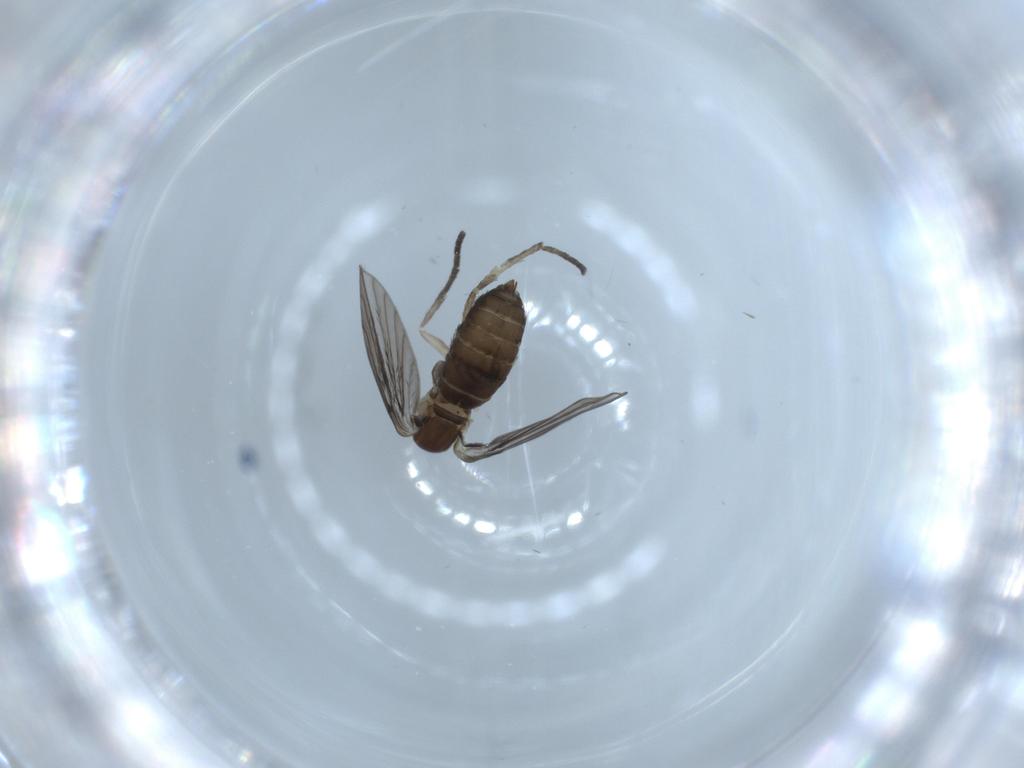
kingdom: Animalia
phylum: Arthropoda
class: Insecta
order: Diptera
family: Psychodidae
